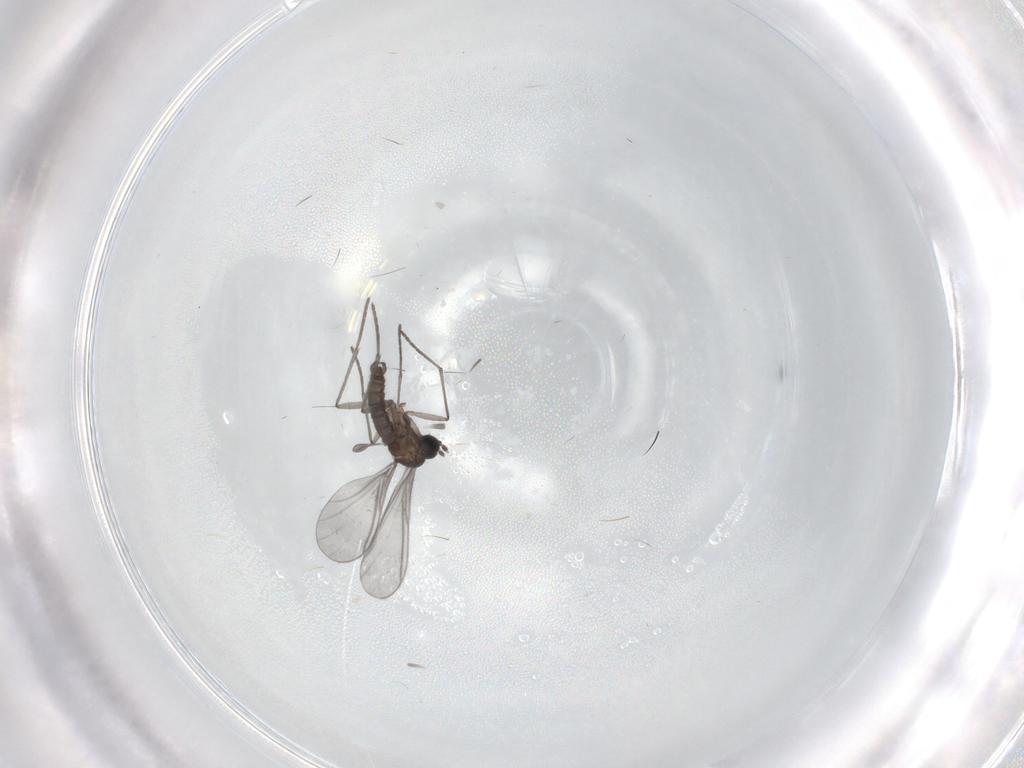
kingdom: Animalia
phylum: Arthropoda
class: Insecta
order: Diptera
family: Sciaridae
